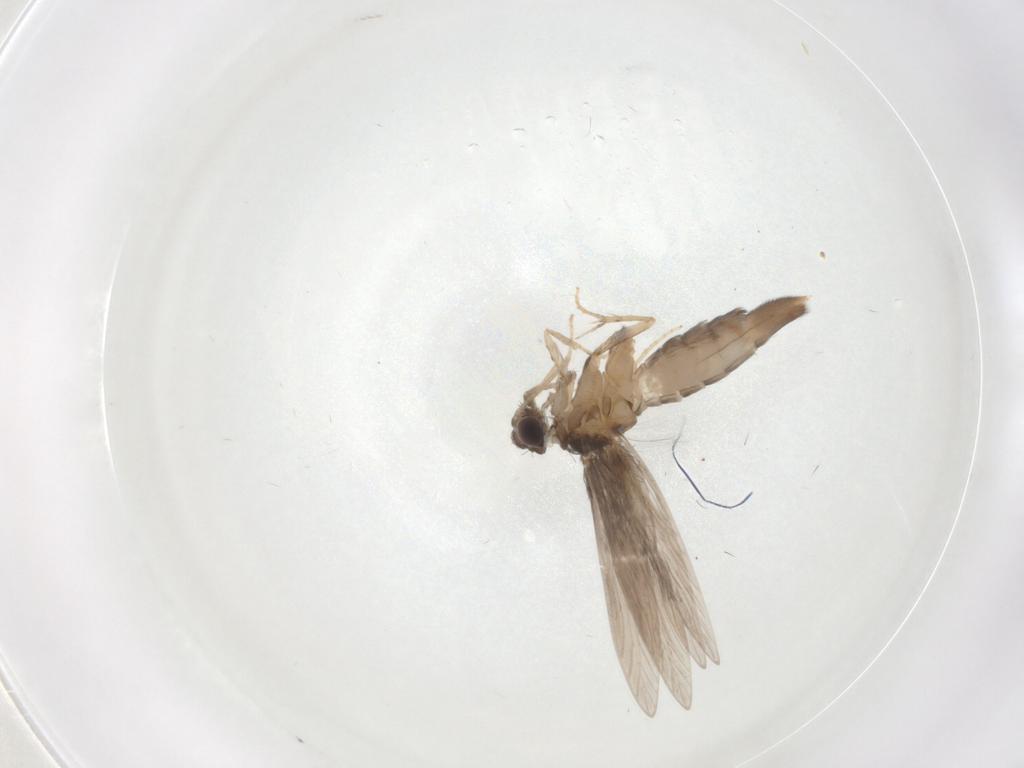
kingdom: Animalia
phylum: Arthropoda
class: Insecta
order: Trichoptera
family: Hydroptilidae
